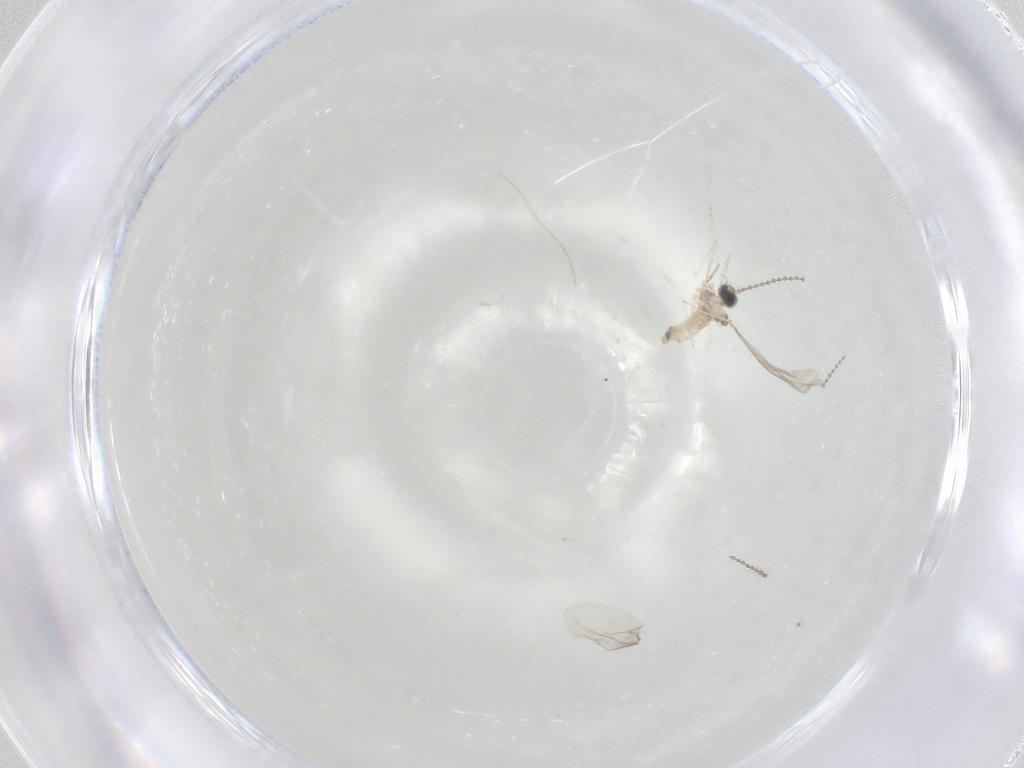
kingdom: Animalia
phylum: Arthropoda
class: Insecta
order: Diptera
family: Cecidomyiidae
